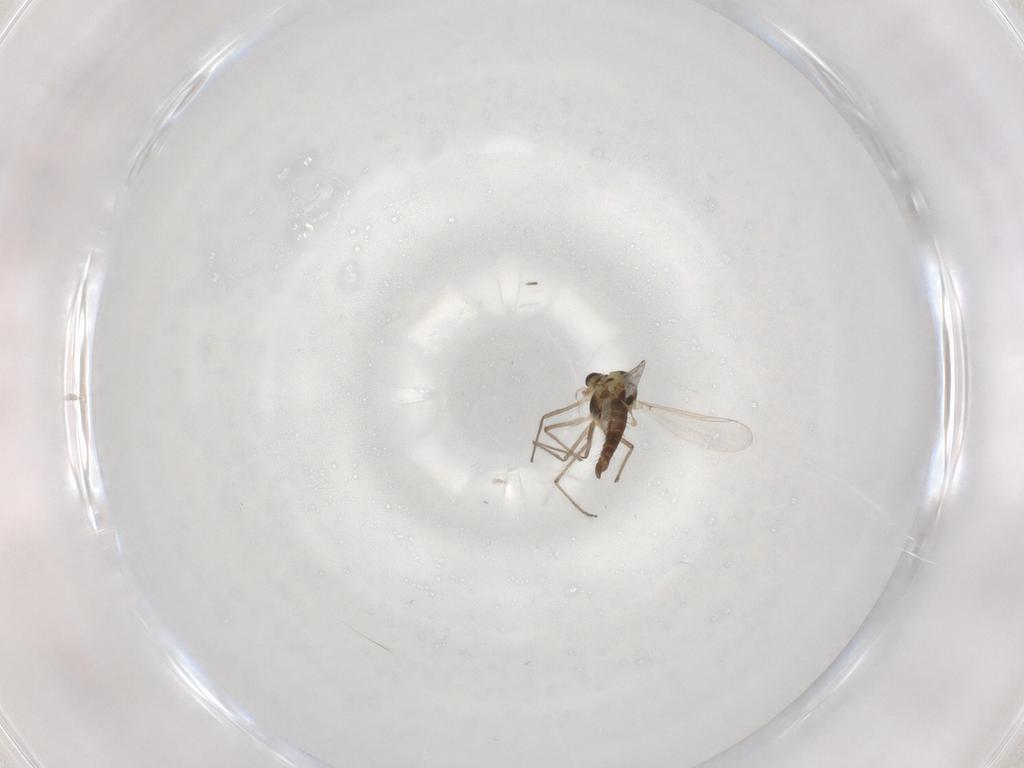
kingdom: Animalia
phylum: Arthropoda
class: Insecta
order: Diptera
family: Chironomidae
